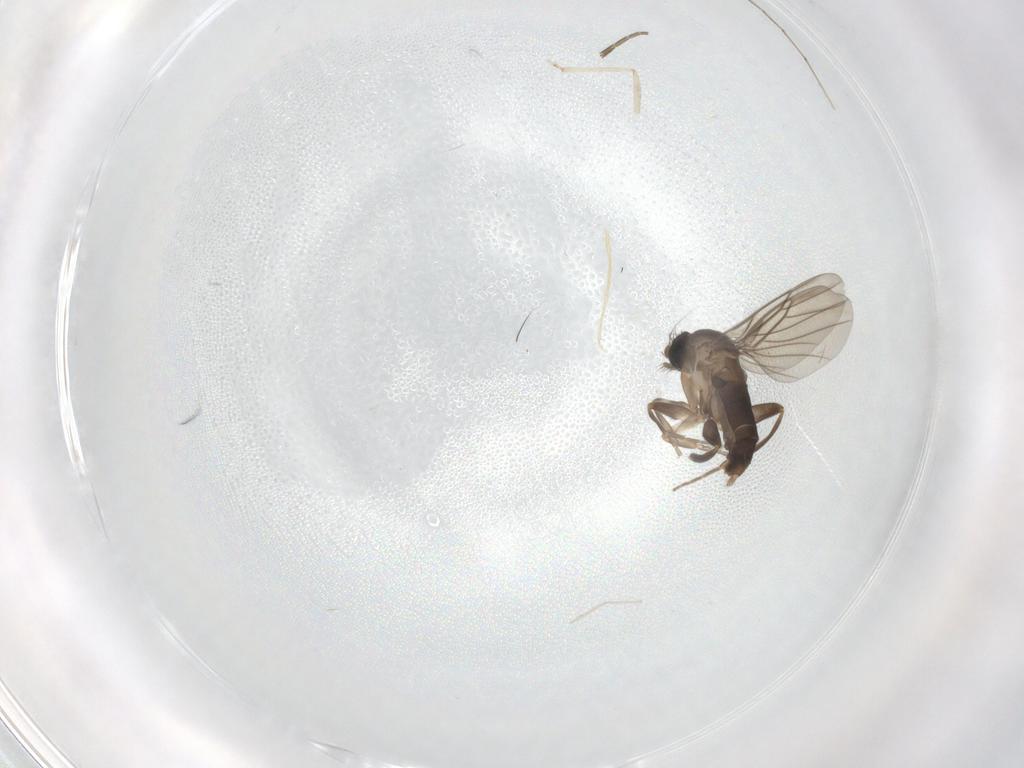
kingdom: Animalia
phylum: Arthropoda
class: Insecta
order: Diptera
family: Cecidomyiidae
